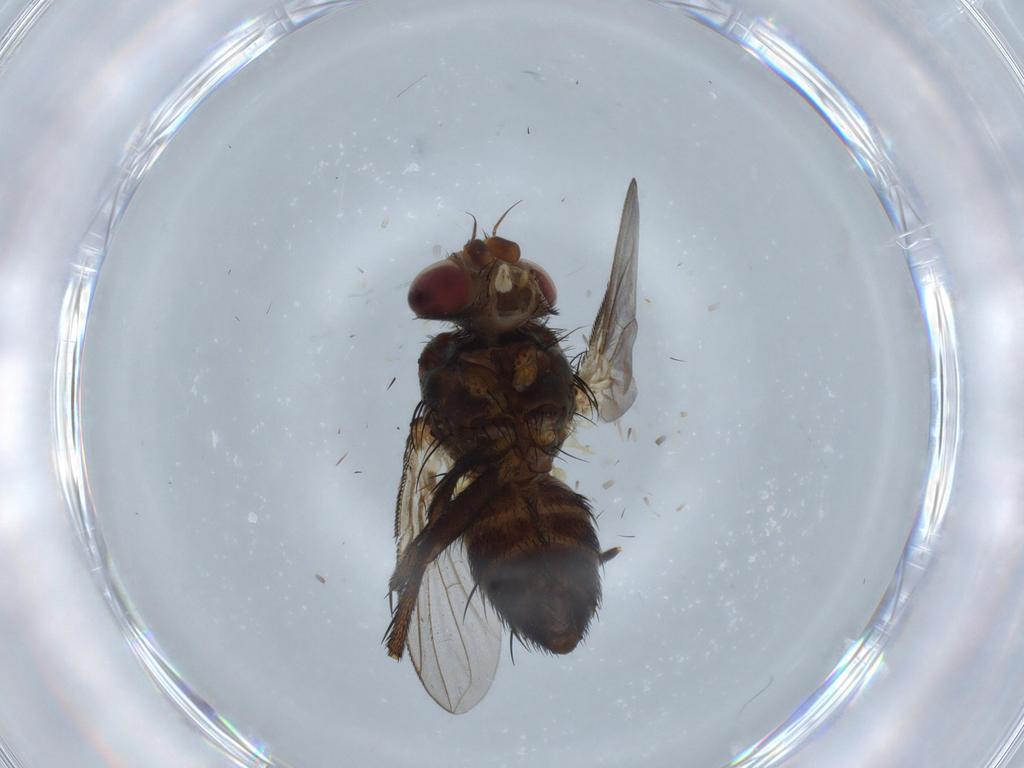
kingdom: Animalia
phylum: Arthropoda
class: Insecta
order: Diptera
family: Tachinidae
